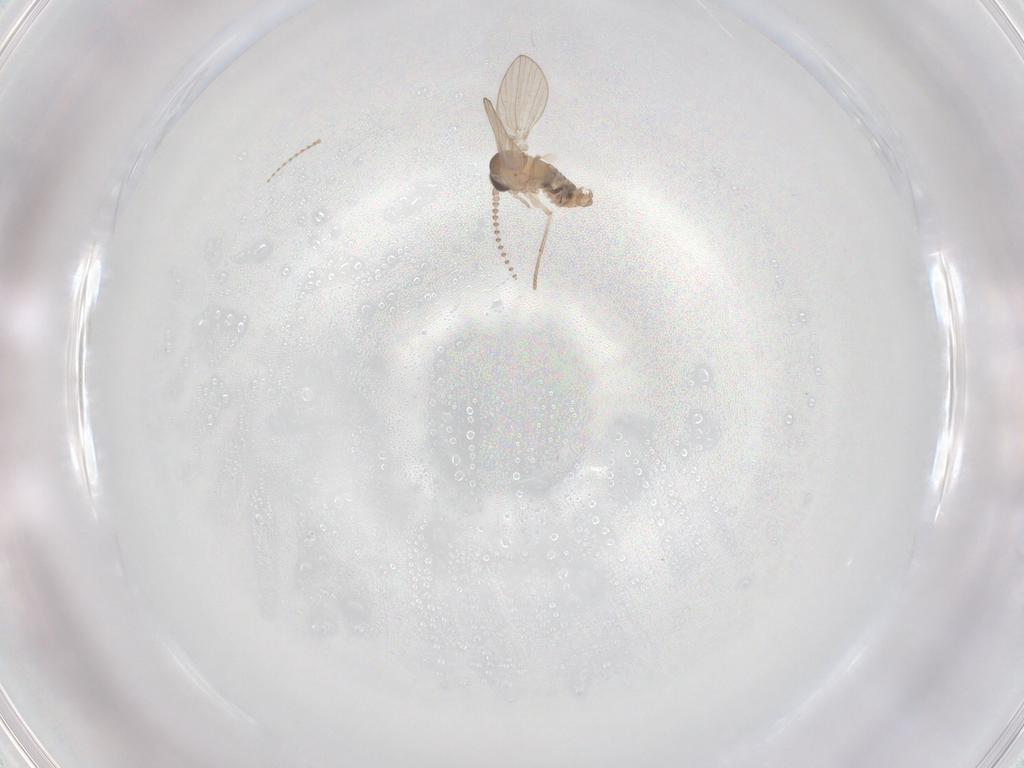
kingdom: Animalia
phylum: Arthropoda
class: Insecta
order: Diptera
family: Psychodidae
